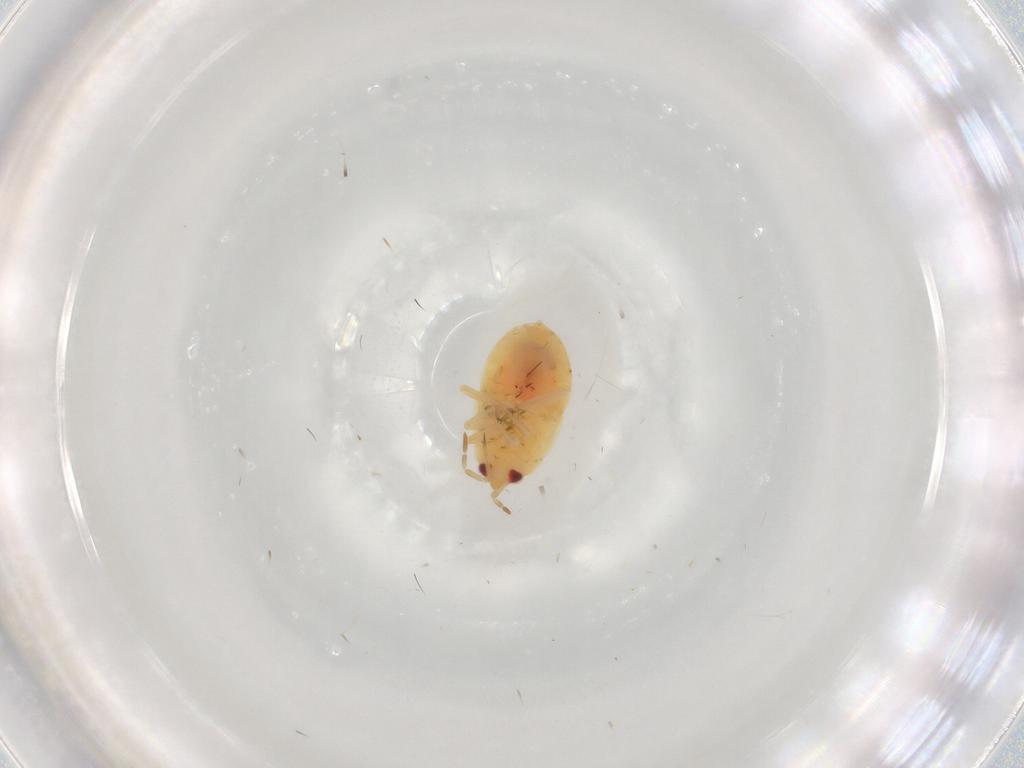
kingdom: Animalia
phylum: Arthropoda
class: Insecta
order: Hemiptera
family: Anthocoridae
